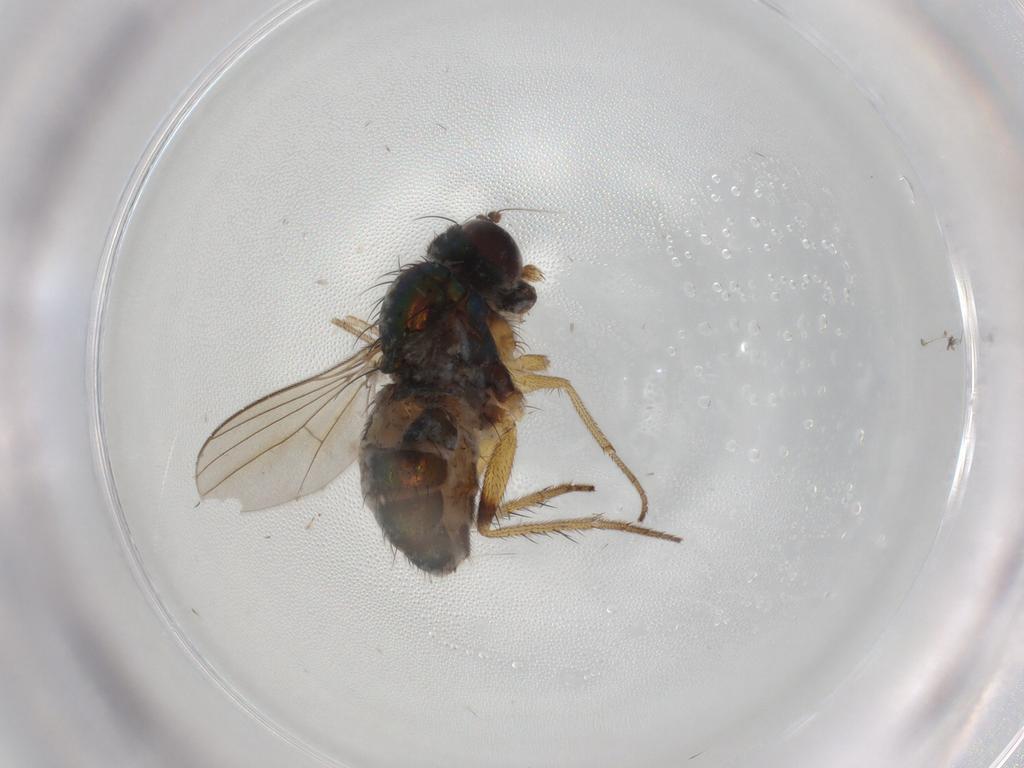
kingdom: Animalia
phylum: Arthropoda
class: Insecta
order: Diptera
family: Dolichopodidae
